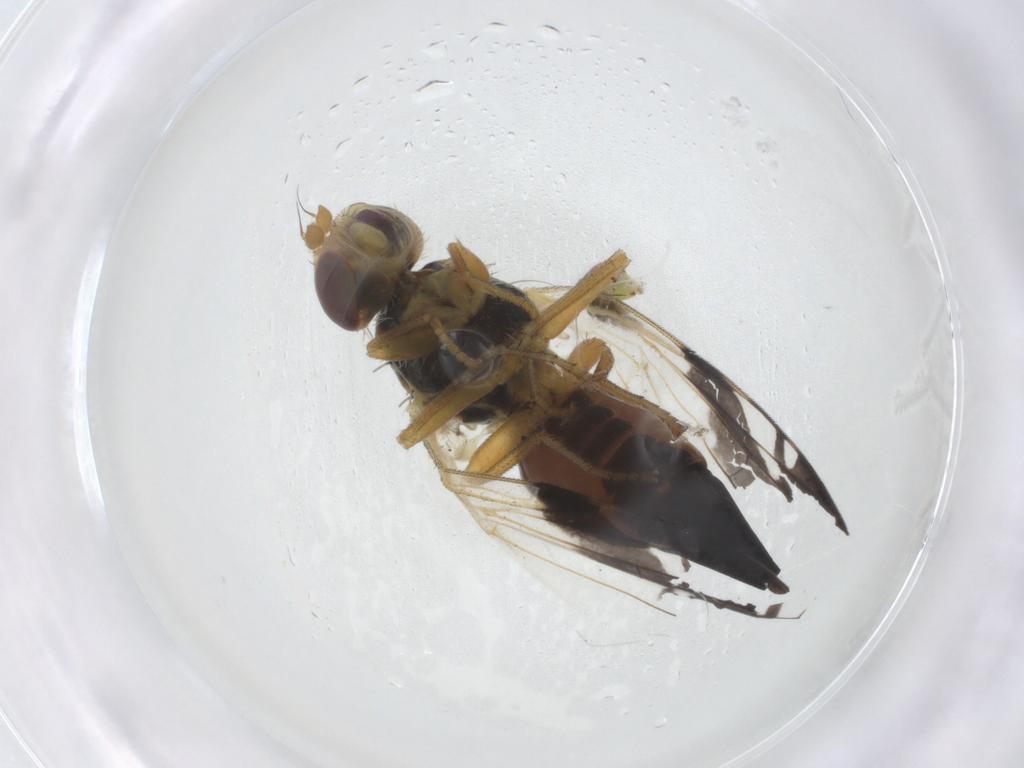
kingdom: Animalia
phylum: Arthropoda
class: Insecta
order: Diptera
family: Tephritidae
